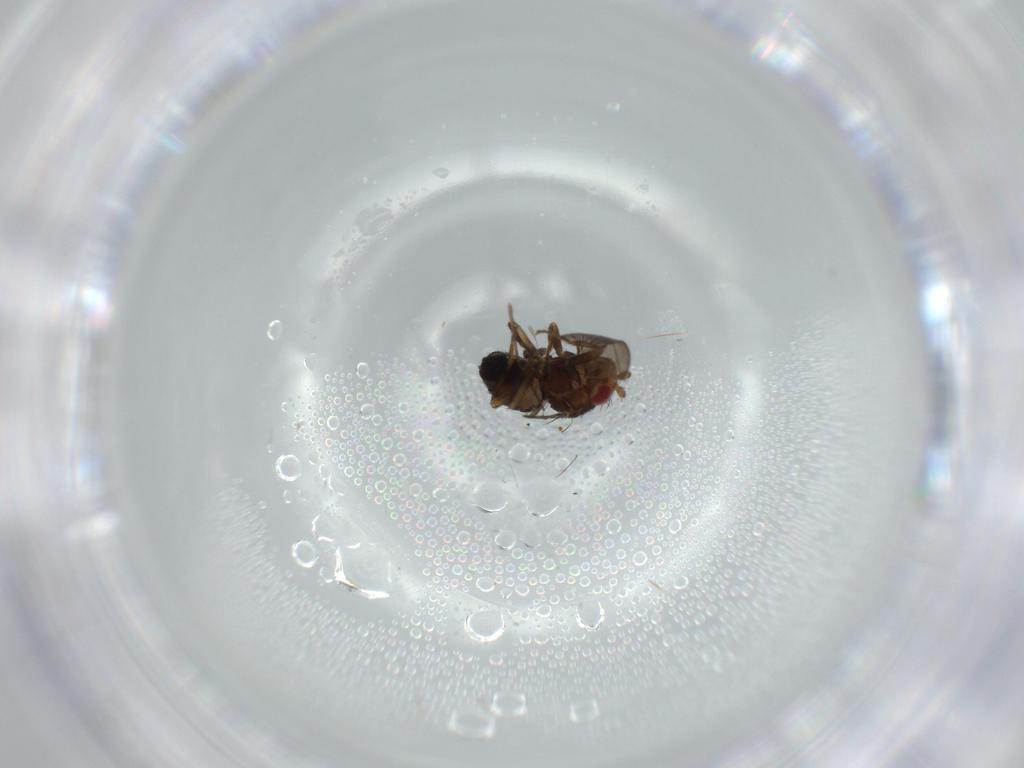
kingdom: Animalia
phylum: Arthropoda
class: Insecta
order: Diptera
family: Sphaeroceridae
